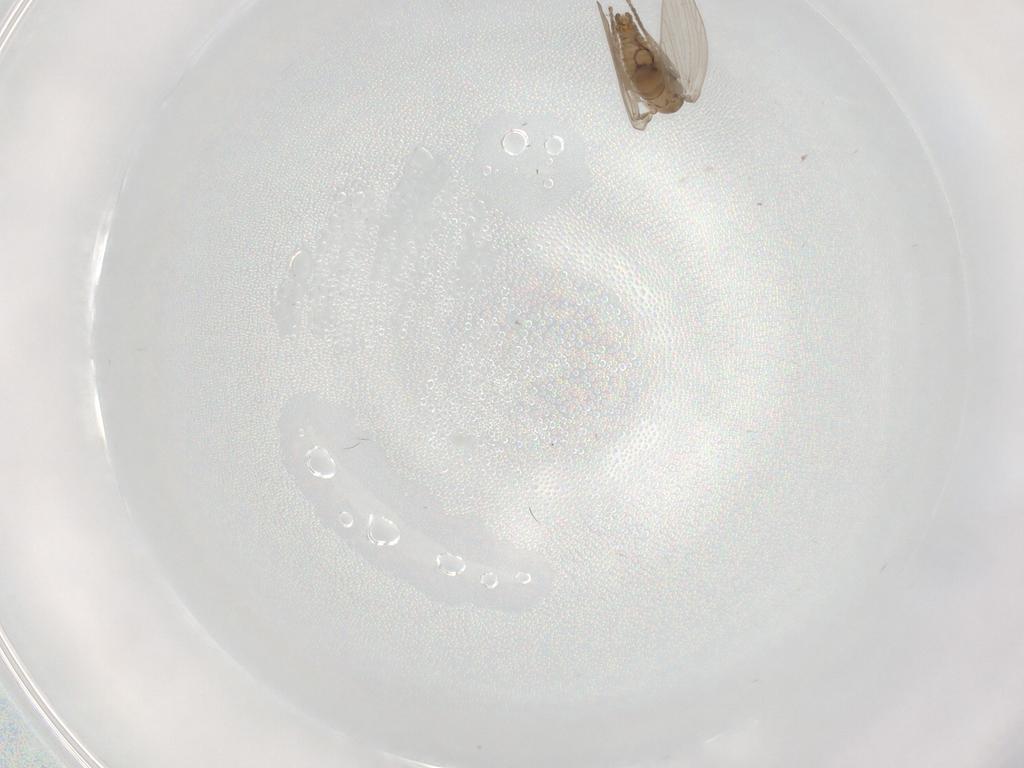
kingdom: Animalia
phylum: Arthropoda
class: Insecta
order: Diptera
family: Psychodidae
